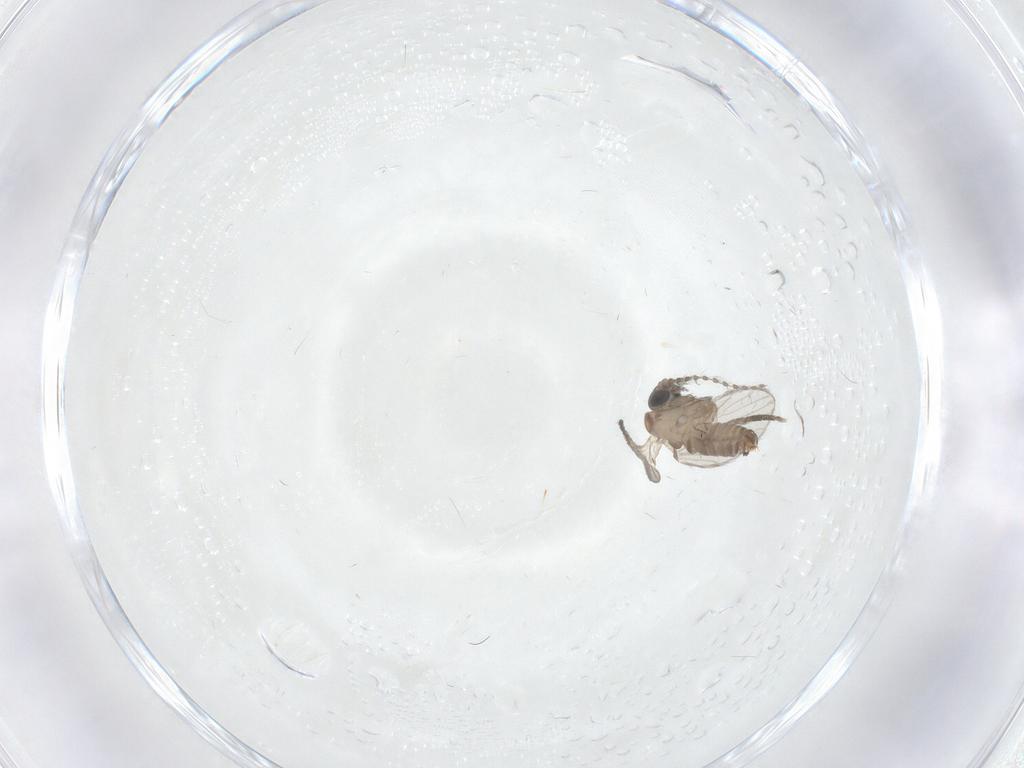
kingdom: Animalia
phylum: Arthropoda
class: Insecta
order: Diptera
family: Psychodidae
